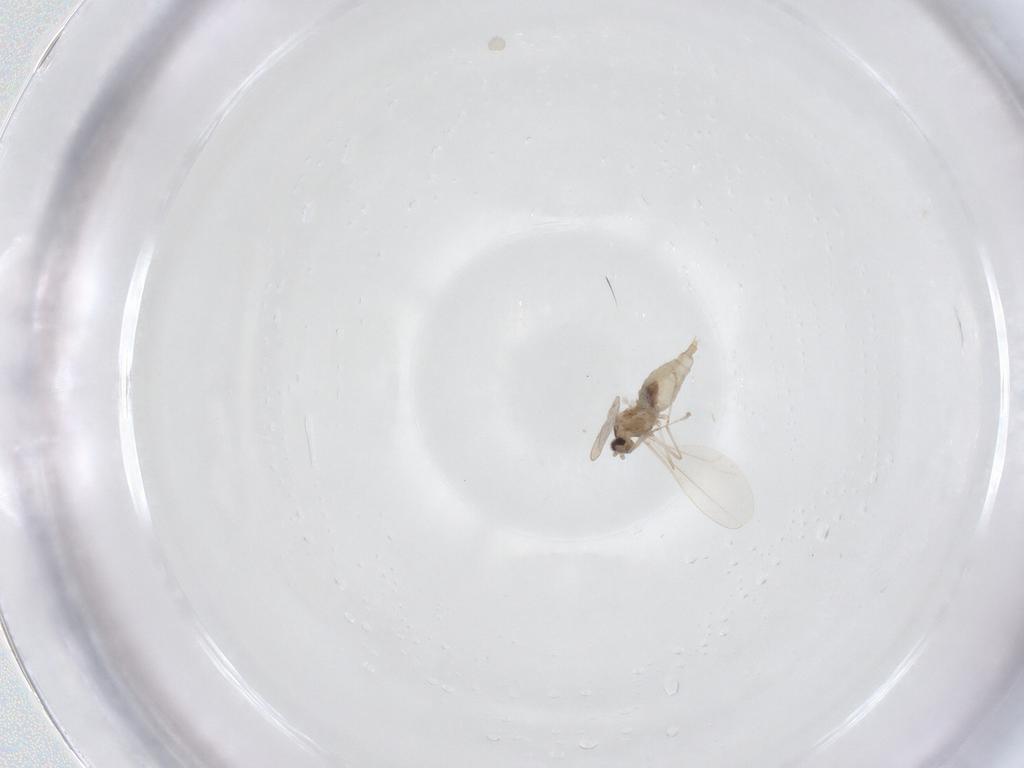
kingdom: Animalia
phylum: Arthropoda
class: Insecta
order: Diptera
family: Cecidomyiidae
